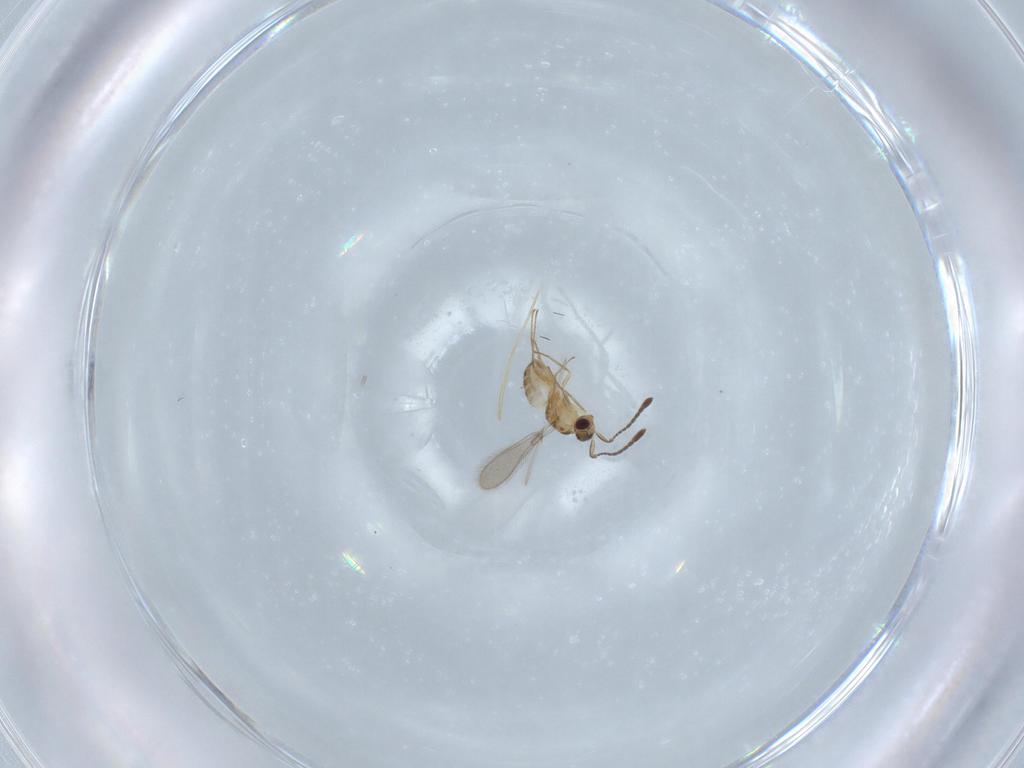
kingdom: Animalia
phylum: Arthropoda
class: Insecta
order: Hymenoptera
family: Mymaridae
